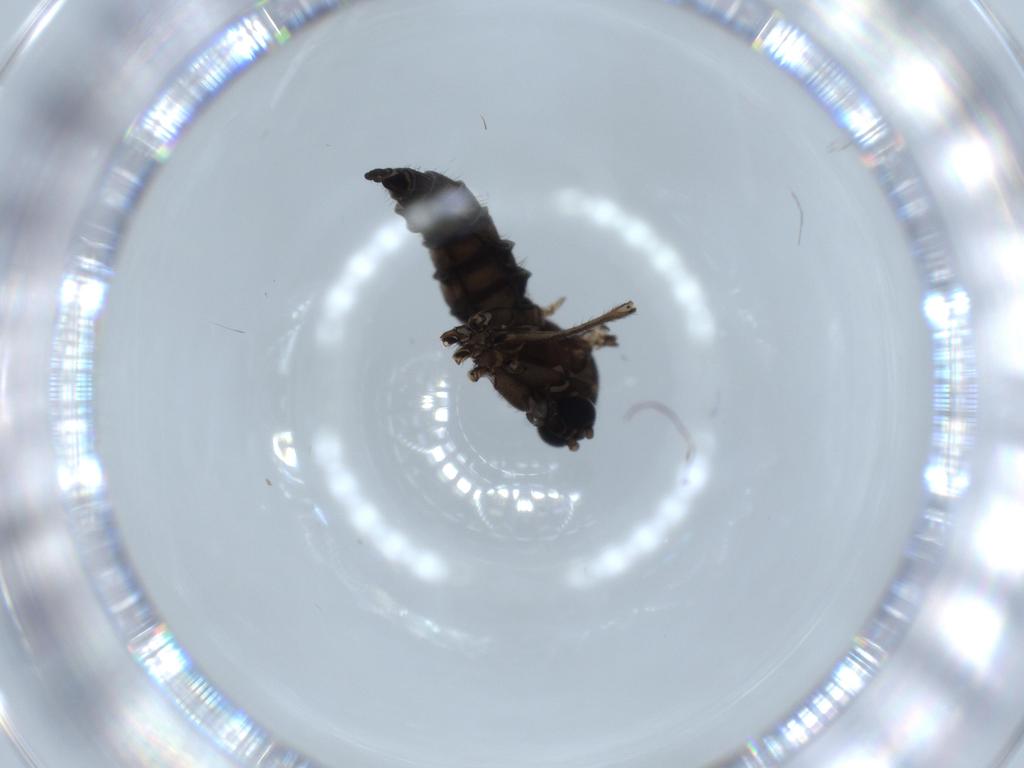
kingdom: Animalia
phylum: Arthropoda
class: Insecta
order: Diptera
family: Sciaridae
